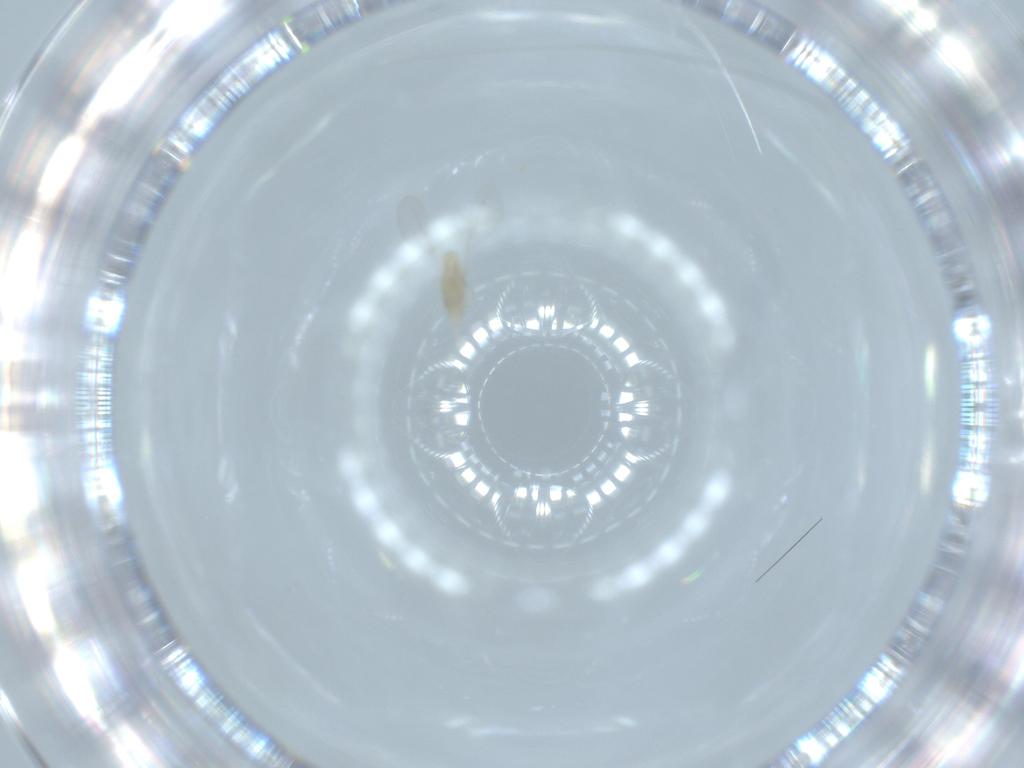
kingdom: Animalia
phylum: Arthropoda
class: Insecta
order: Diptera
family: Cecidomyiidae
